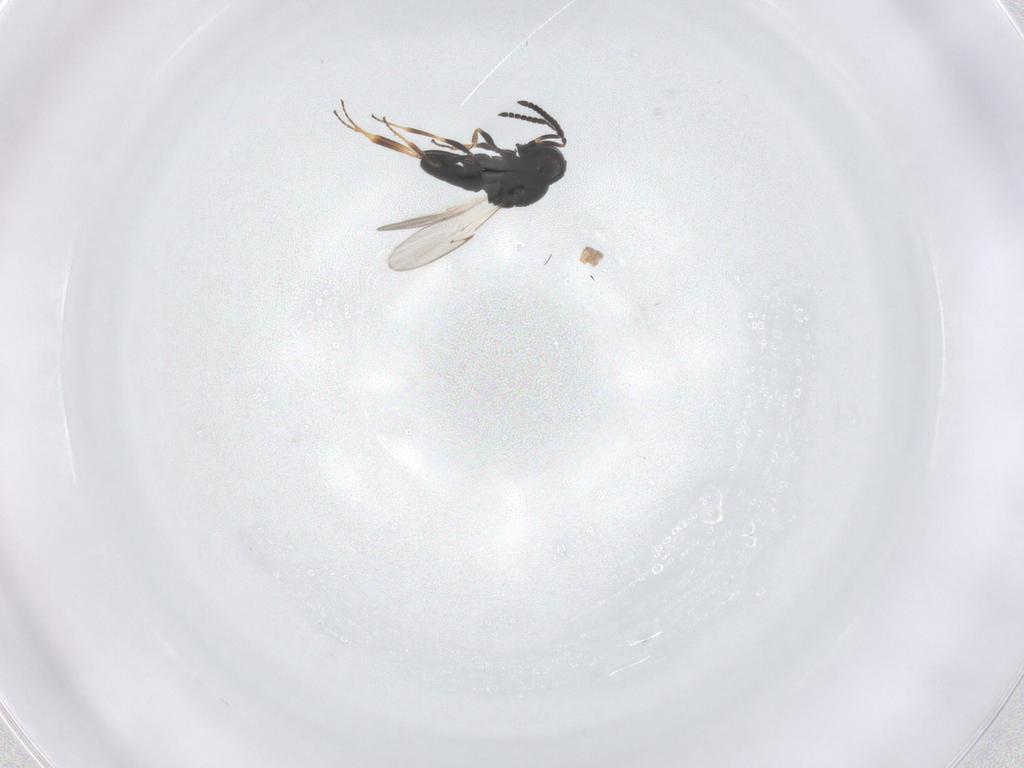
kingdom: Animalia
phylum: Arthropoda
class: Insecta
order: Hymenoptera
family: Scelionidae
